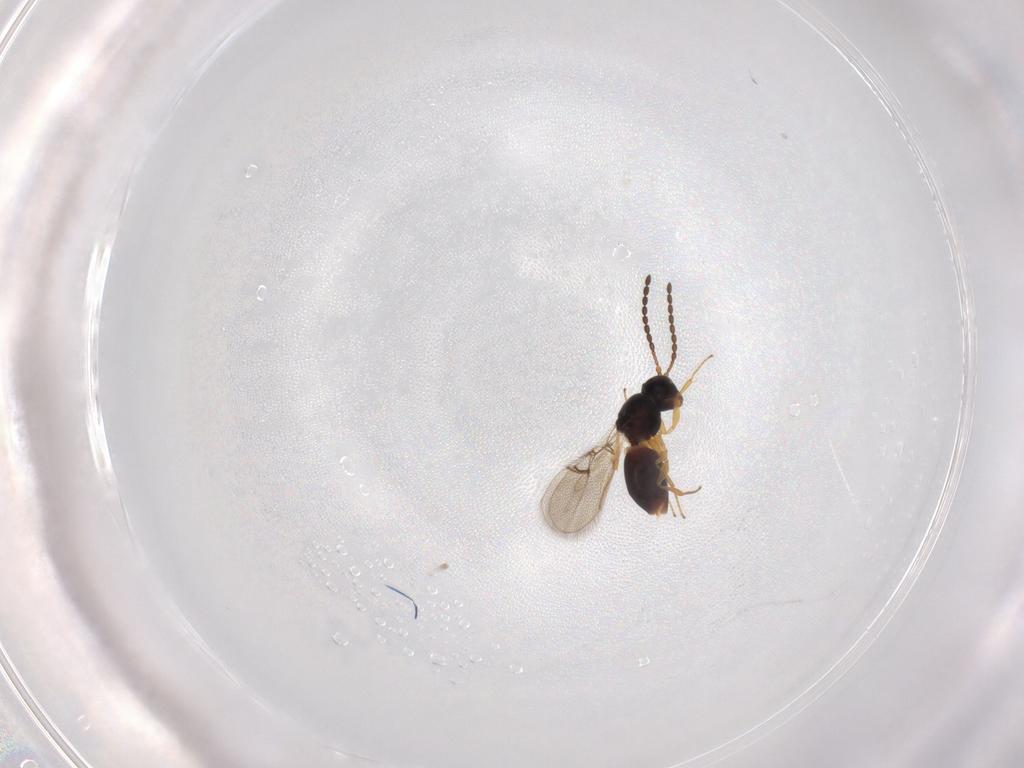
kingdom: Animalia
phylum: Arthropoda
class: Insecta
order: Hymenoptera
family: Figitidae
